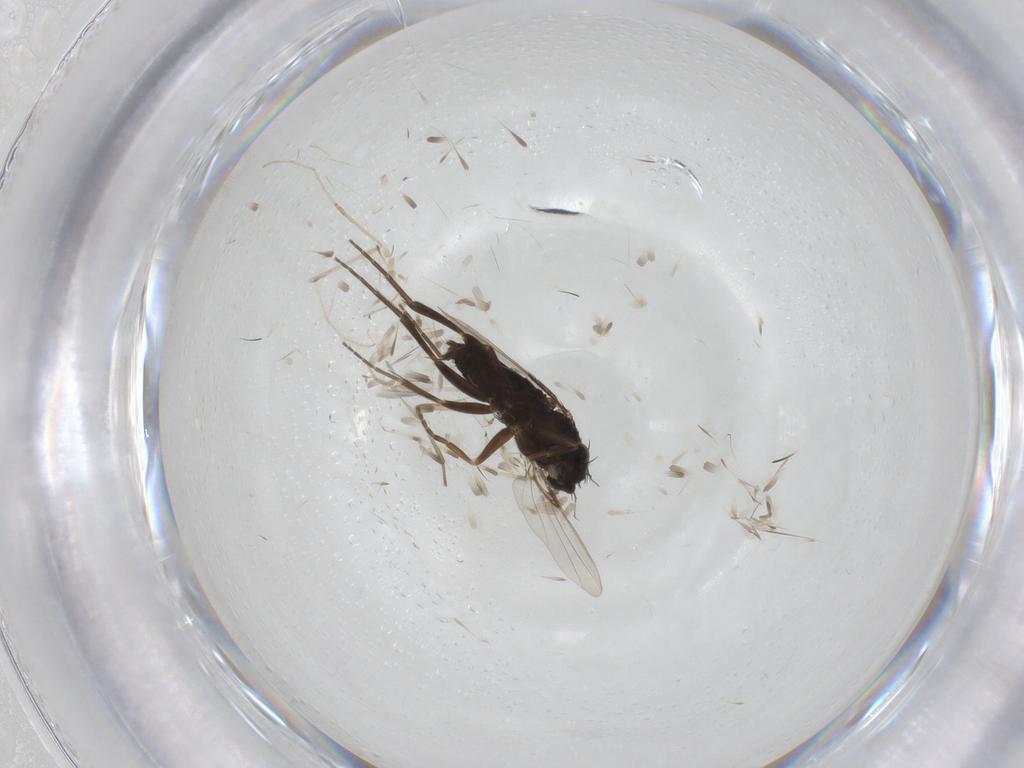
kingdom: Animalia
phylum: Arthropoda
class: Insecta
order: Diptera
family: Phoridae
